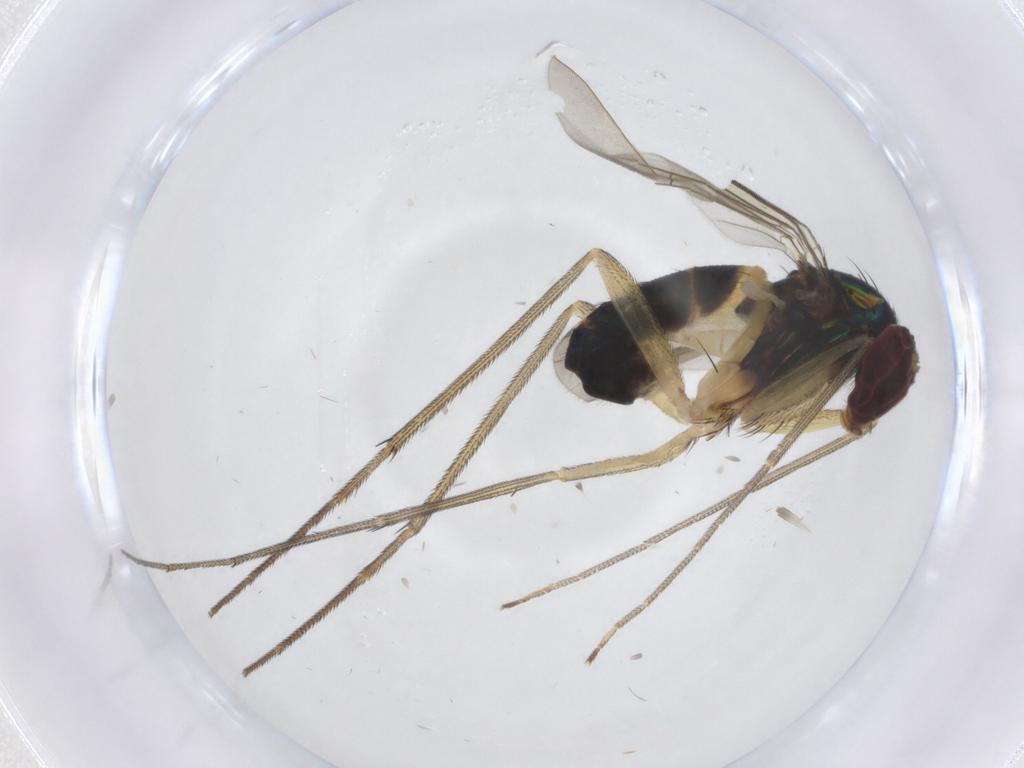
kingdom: Animalia
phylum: Arthropoda
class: Insecta
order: Diptera
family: Dolichopodidae
